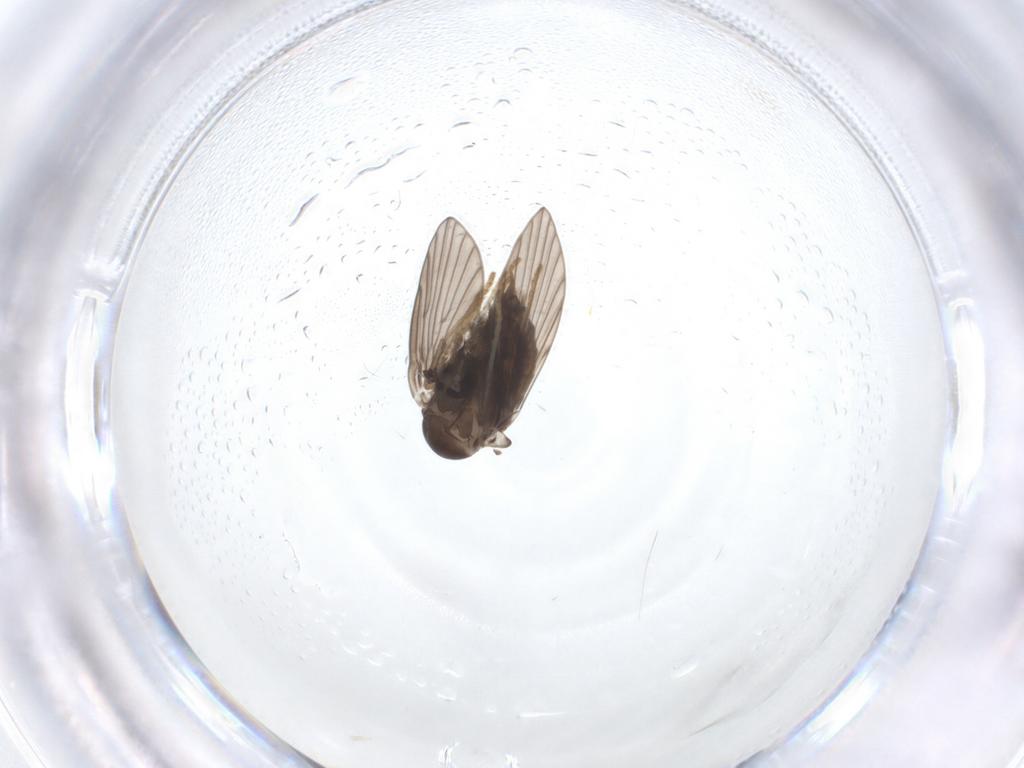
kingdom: Animalia
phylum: Arthropoda
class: Insecta
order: Diptera
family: Psychodidae
